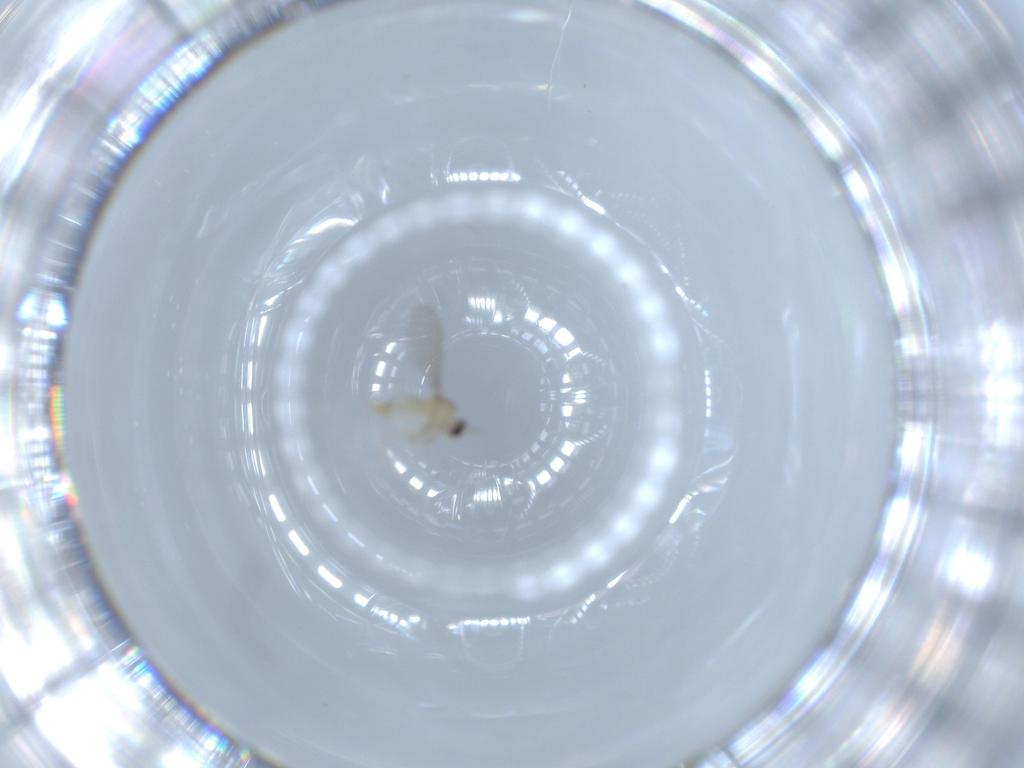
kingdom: Animalia
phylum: Arthropoda
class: Insecta
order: Diptera
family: Cecidomyiidae
